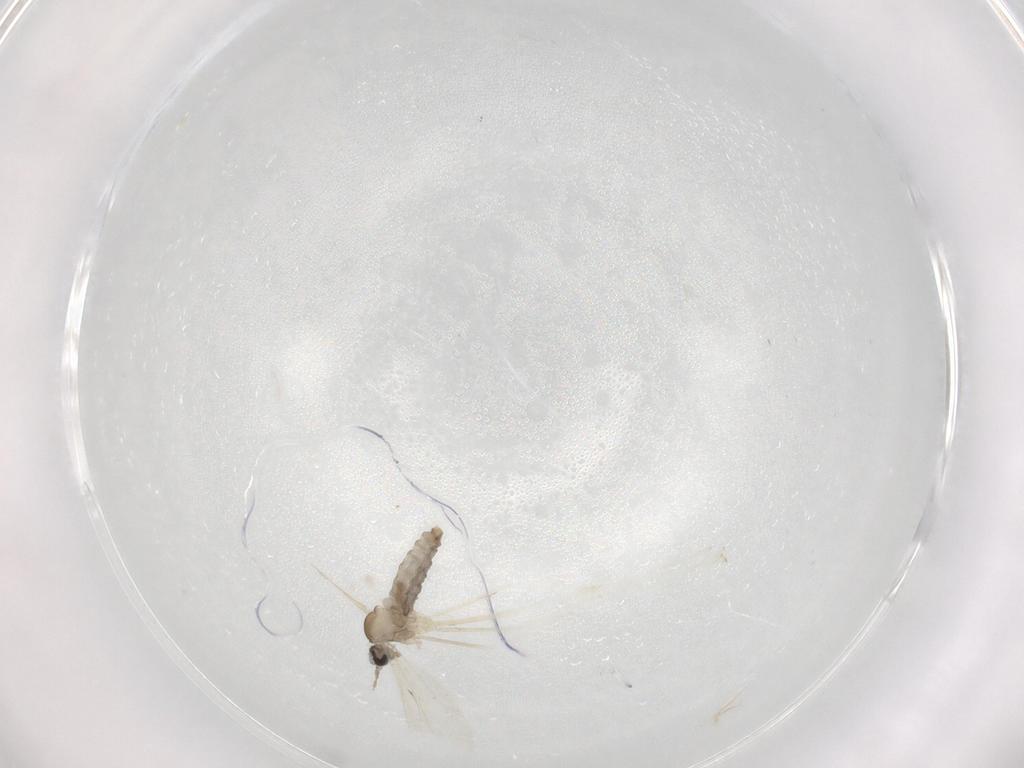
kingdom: Animalia
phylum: Arthropoda
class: Insecta
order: Diptera
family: Cecidomyiidae
